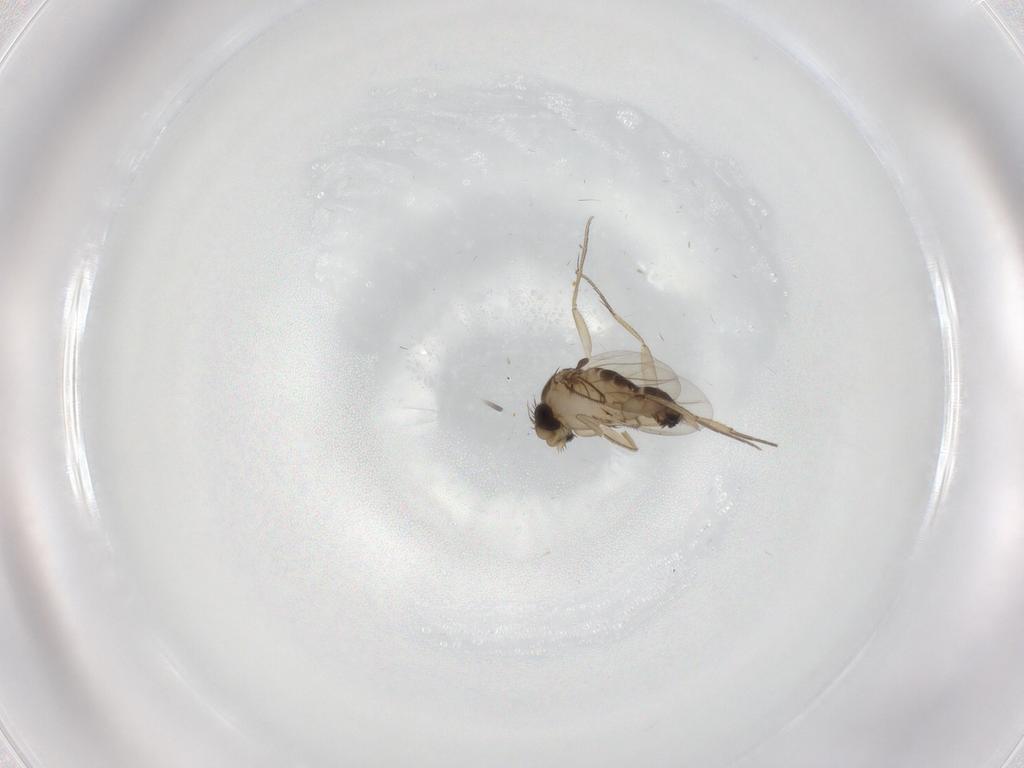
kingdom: Animalia
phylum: Arthropoda
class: Insecta
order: Diptera
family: Phoridae
